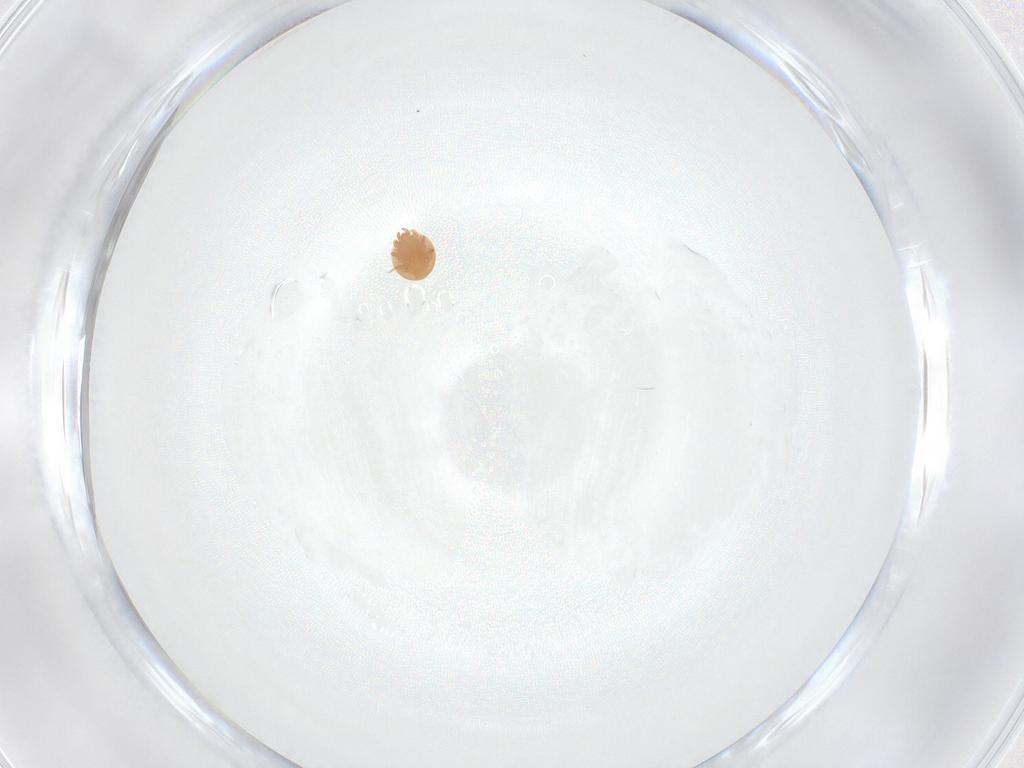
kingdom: Animalia
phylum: Arthropoda
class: Arachnida
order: Mesostigmata
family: Trematuridae
